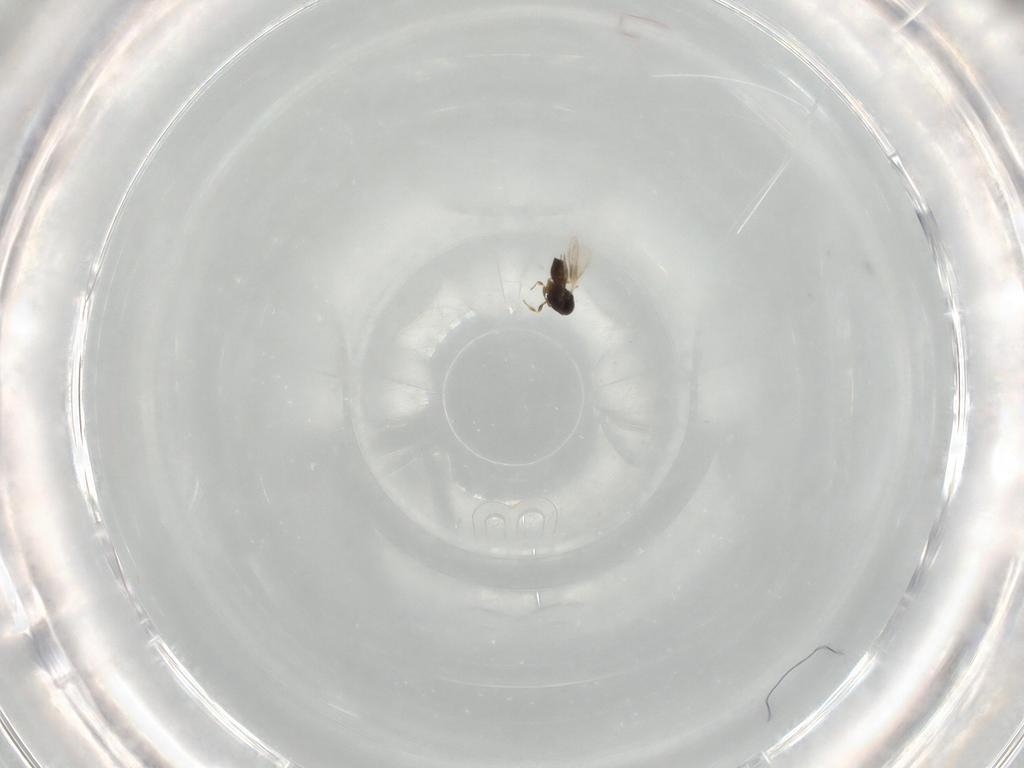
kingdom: Animalia
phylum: Arthropoda
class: Insecta
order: Hymenoptera
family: Scelionidae
